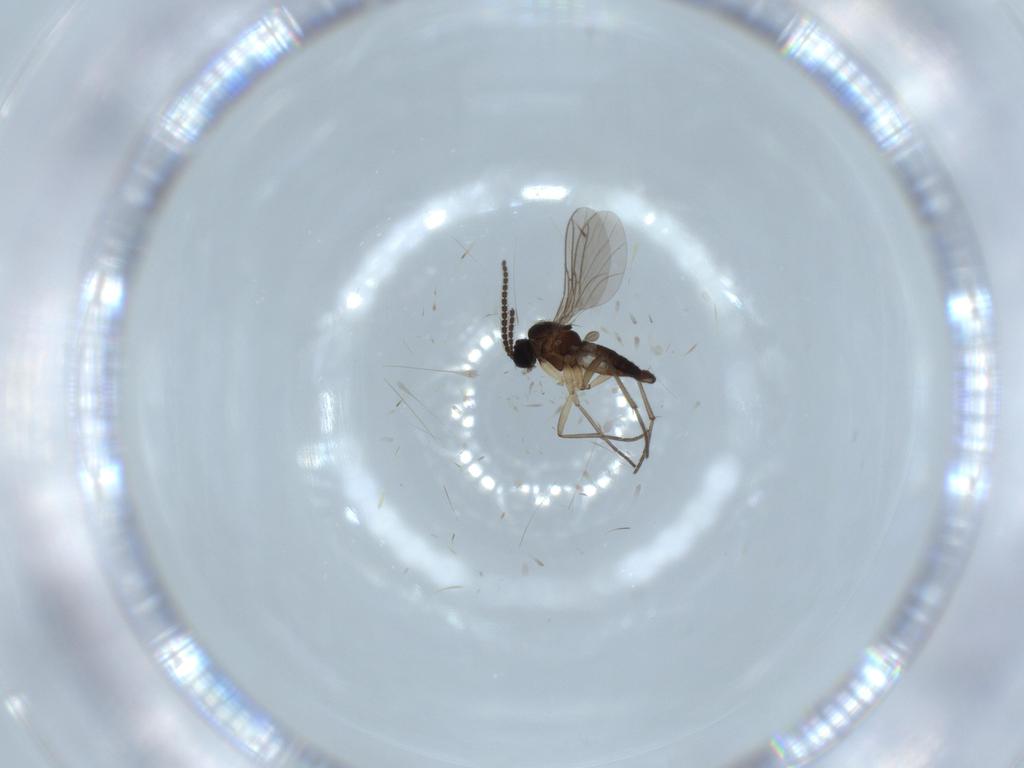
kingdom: Animalia
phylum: Arthropoda
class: Insecta
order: Diptera
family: Sciaridae
